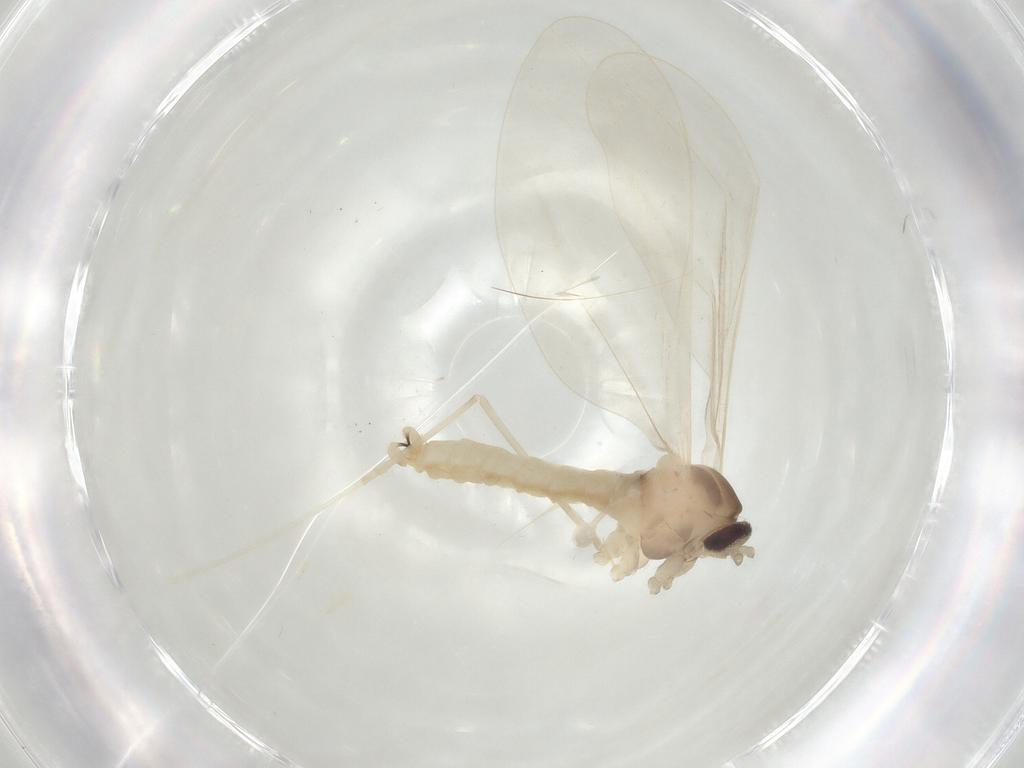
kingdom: Animalia
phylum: Arthropoda
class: Insecta
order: Diptera
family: Cecidomyiidae
